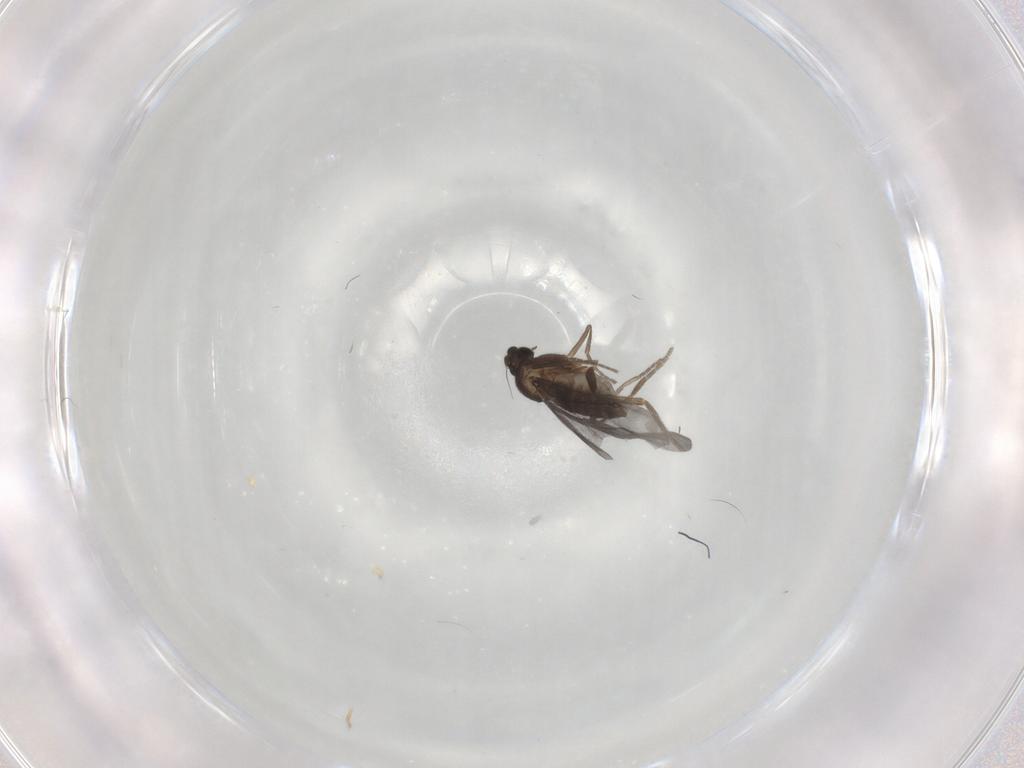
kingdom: Animalia
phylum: Arthropoda
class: Insecta
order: Diptera
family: Phoridae
